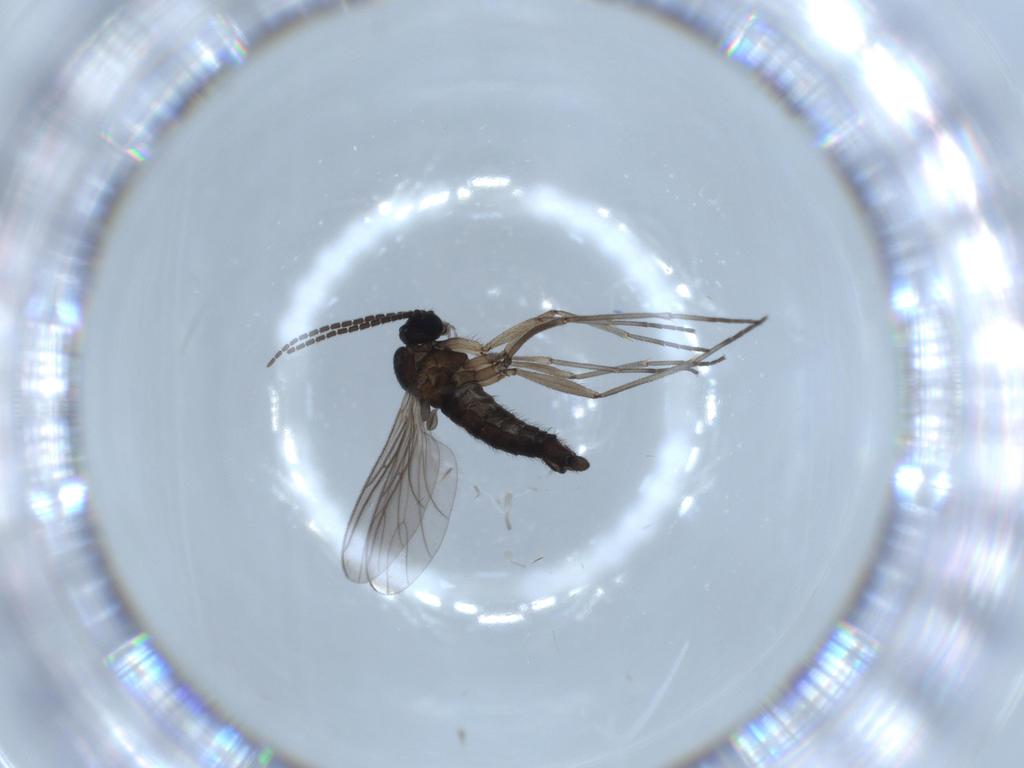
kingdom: Animalia
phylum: Arthropoda
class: Insecta
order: Diptera
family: Sciaridae
